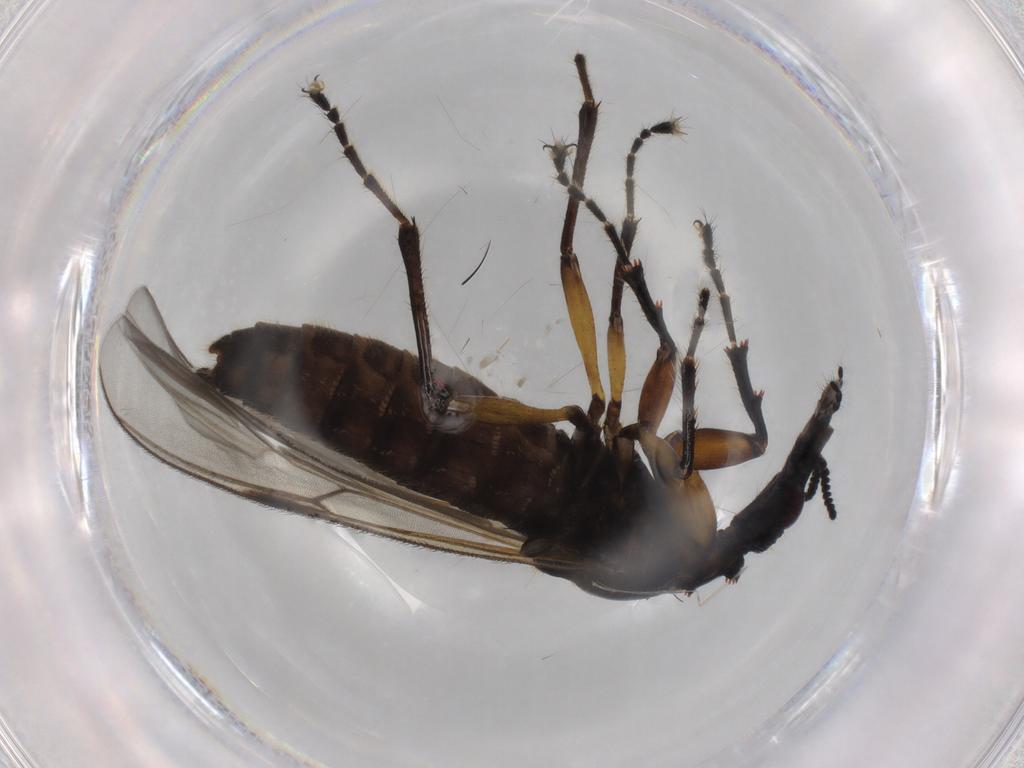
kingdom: Animalia
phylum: Arthropoda
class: Insecta
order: Diptera
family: Bibionidae
